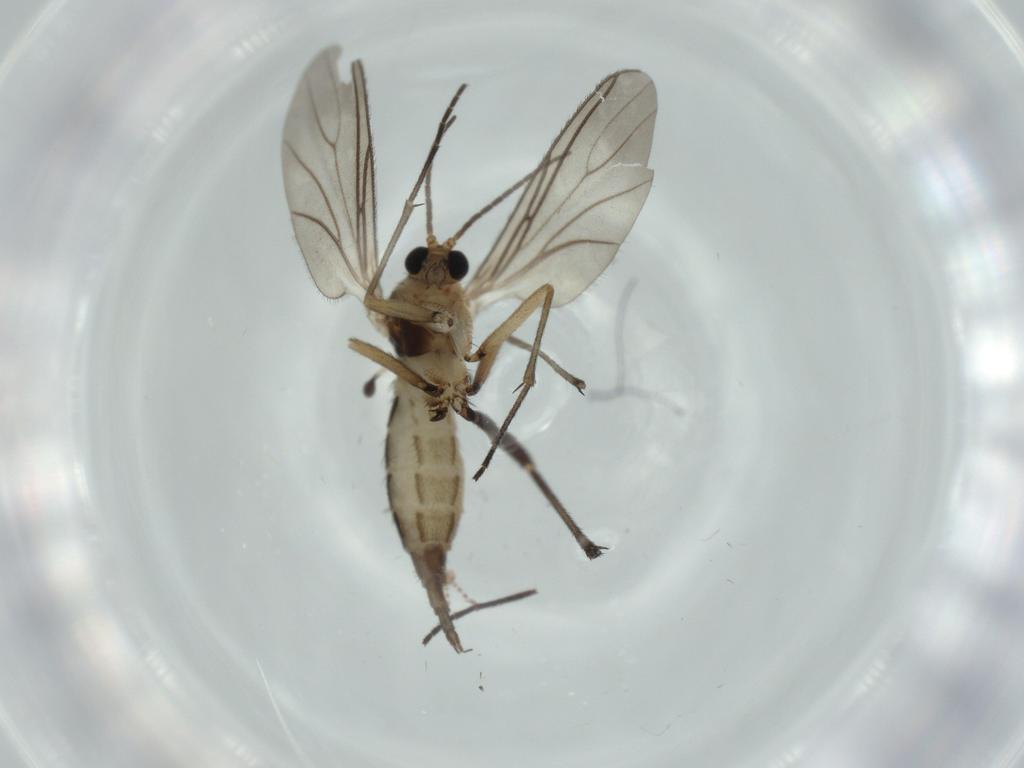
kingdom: Animalia
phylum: Arthropoda
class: Insecta
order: Diptera
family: Sciaridae
